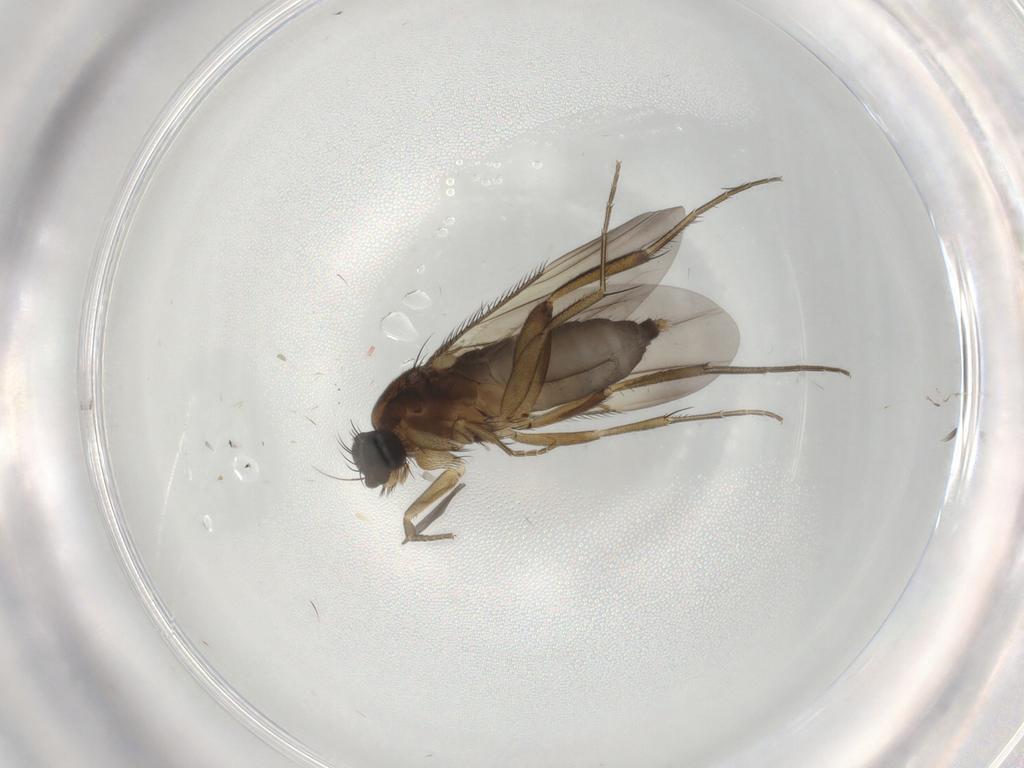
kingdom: Animalia
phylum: Arthropoda
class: Insecta
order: Diptera
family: Phoridae
